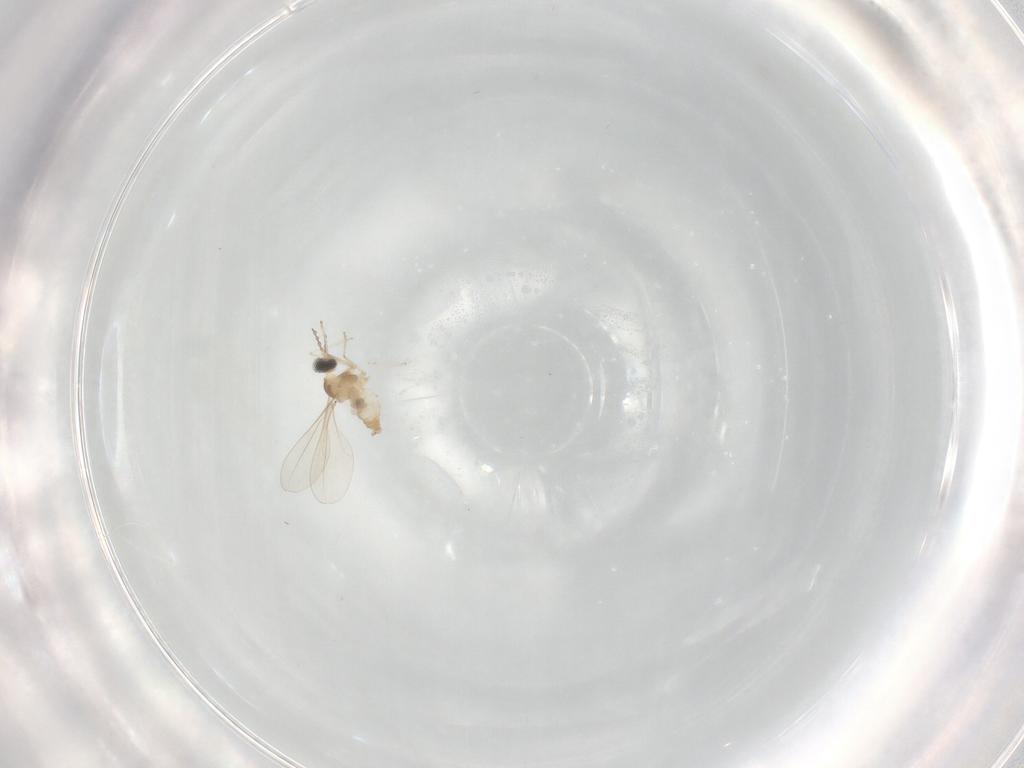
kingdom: Animalia
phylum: Arthropoda
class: Insecta
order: Diptera
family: Cecidomyiidae
